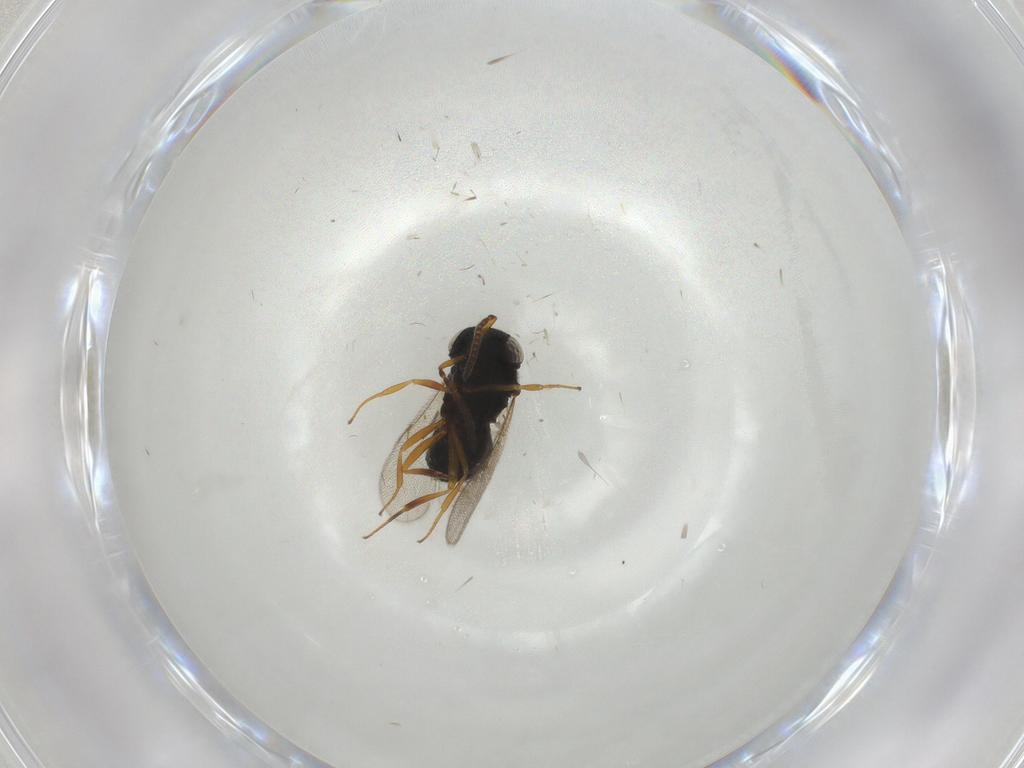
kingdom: Animalia
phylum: Arthropoda
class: Insecta
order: Hymenoptera
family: Scelionidae
